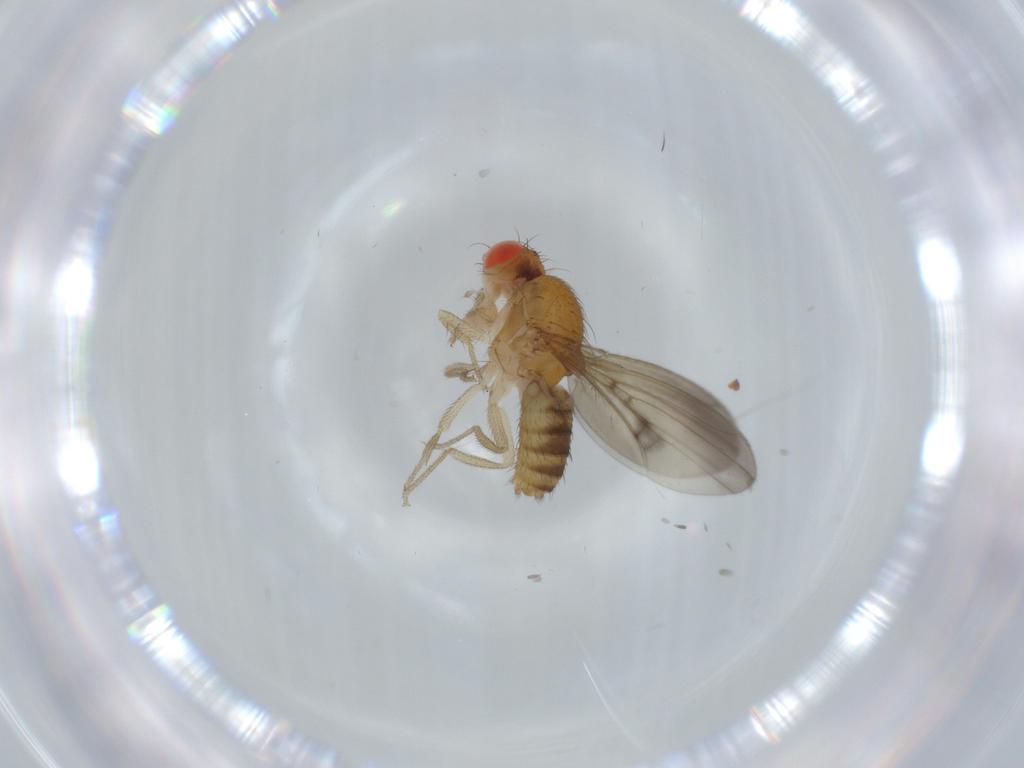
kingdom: Animalia
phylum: Arthropoda
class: Insecta
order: Diptera
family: Drosophilidae
